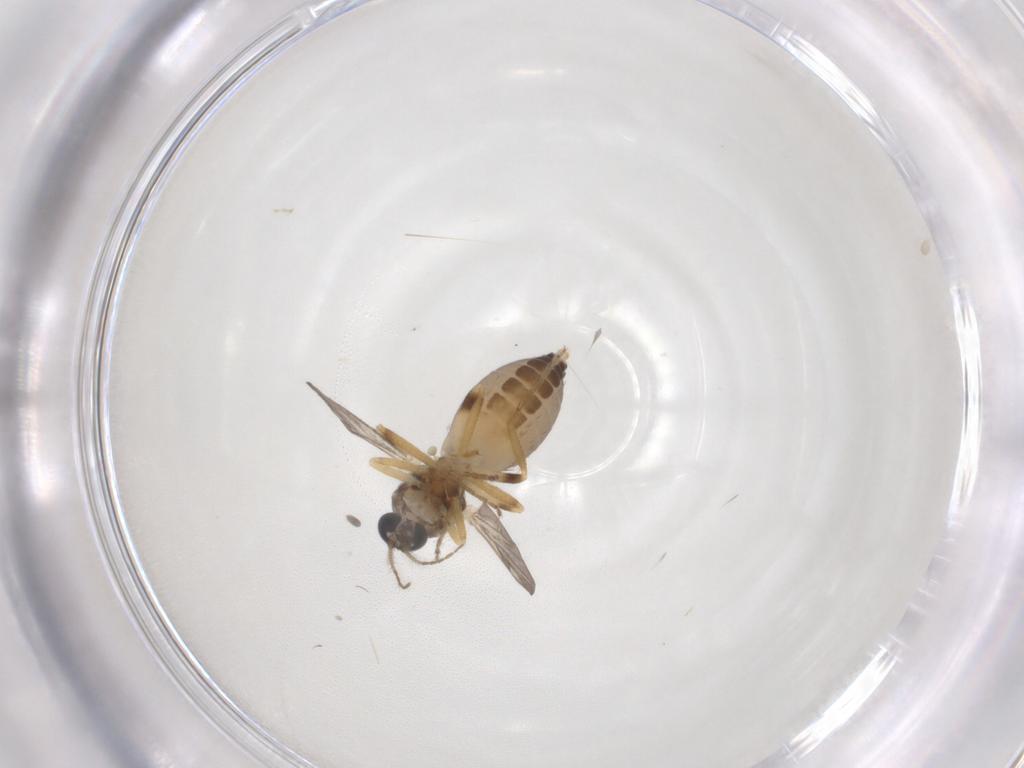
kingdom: Animalia
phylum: Arthropoda
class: Insecta
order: Diptera
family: Ceratopogonidae
